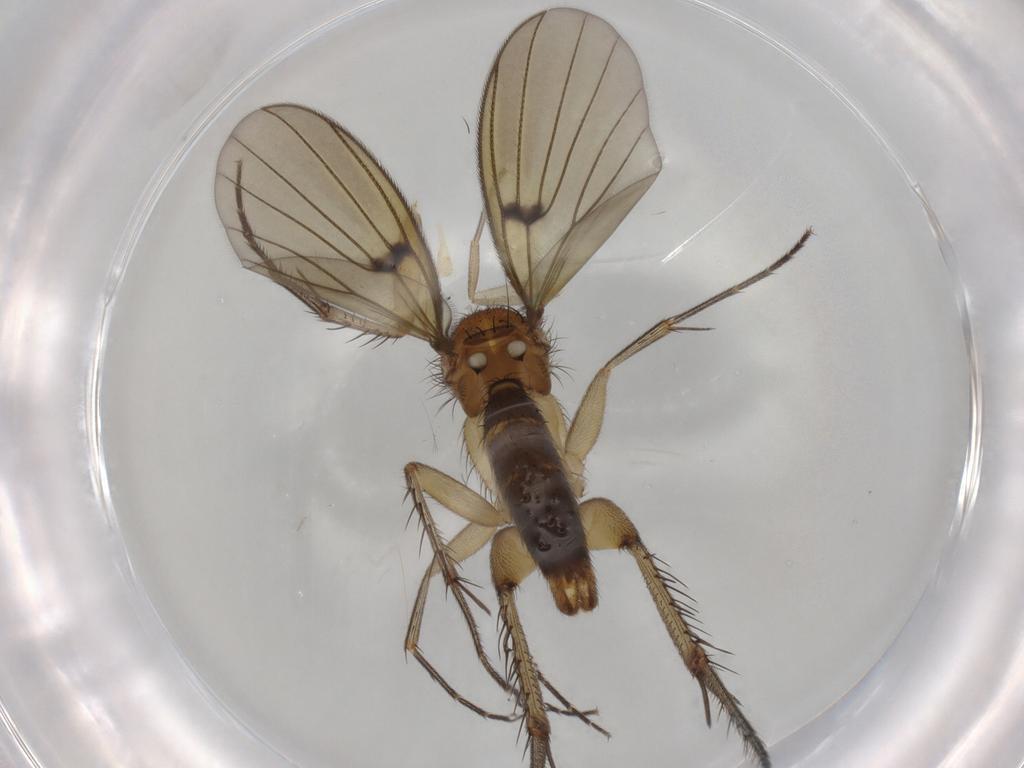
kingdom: Animalia
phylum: Arthropoda
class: Insecta
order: Diptera
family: Mycetophilidae
